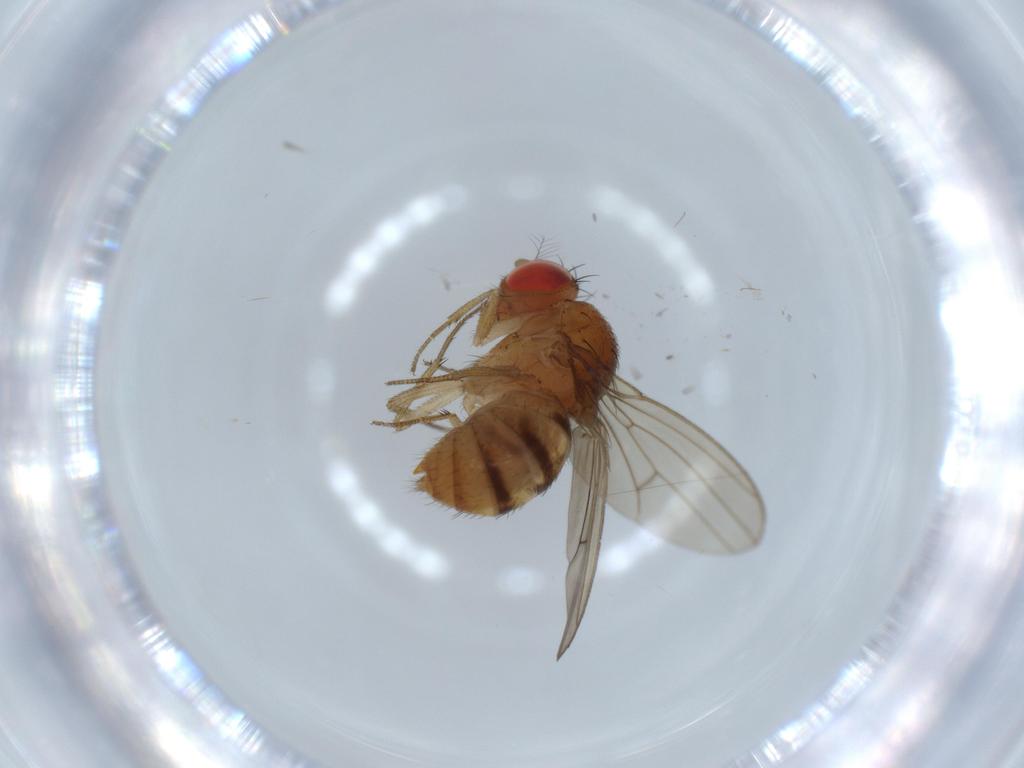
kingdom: Animalia
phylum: Arthropoda
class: Insecta
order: Diptera
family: Drosophilidae
